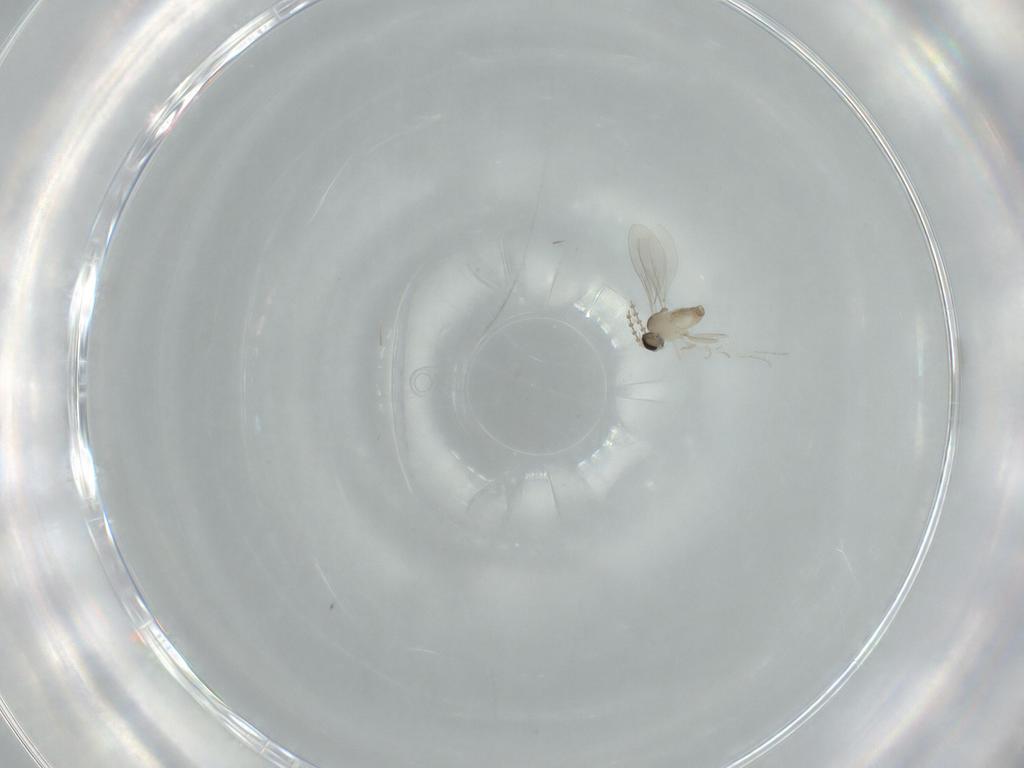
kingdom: Animalia
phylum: Arthropoda
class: Insecta
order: Diptera
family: Cecidomyiidae
